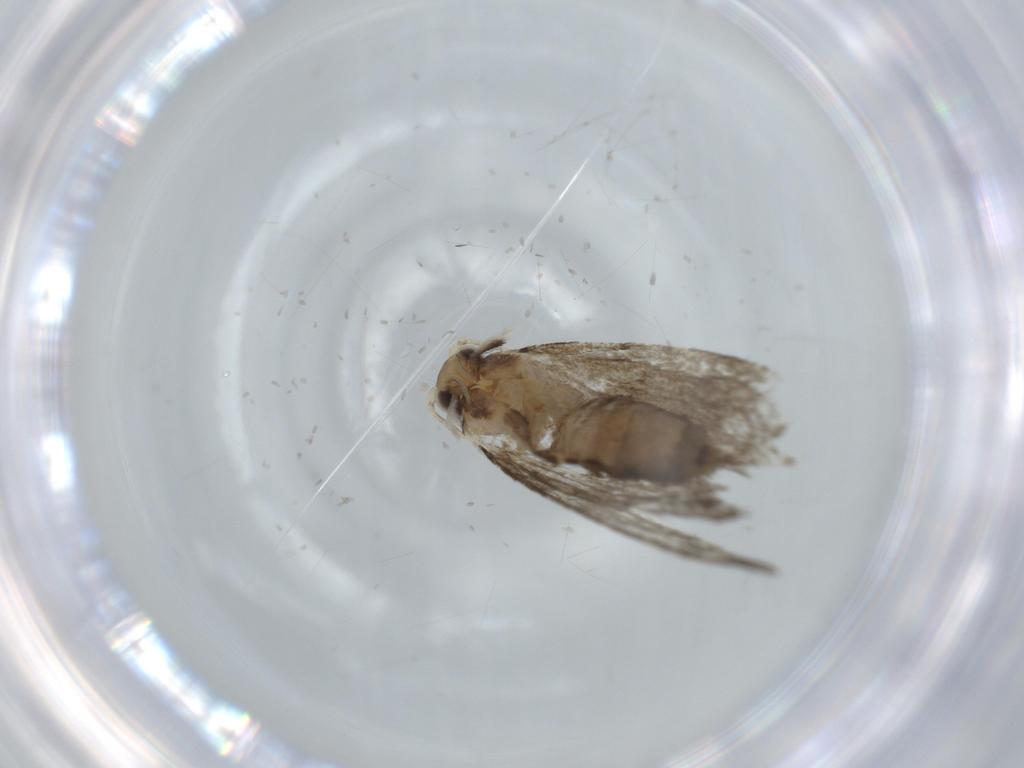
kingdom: Animalia
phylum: Arthropoda
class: Insecta
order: Lepidoptera
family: Tineidae
